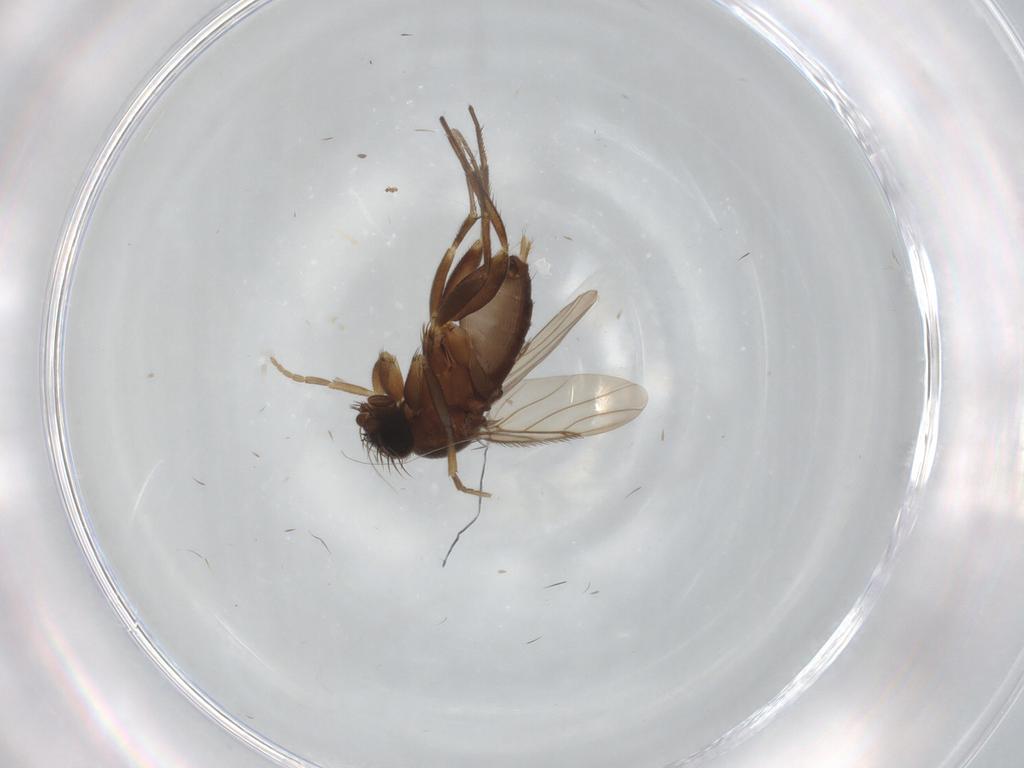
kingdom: Animalia
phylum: Arthropoda
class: Insecta
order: Diptera
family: Phoridae
